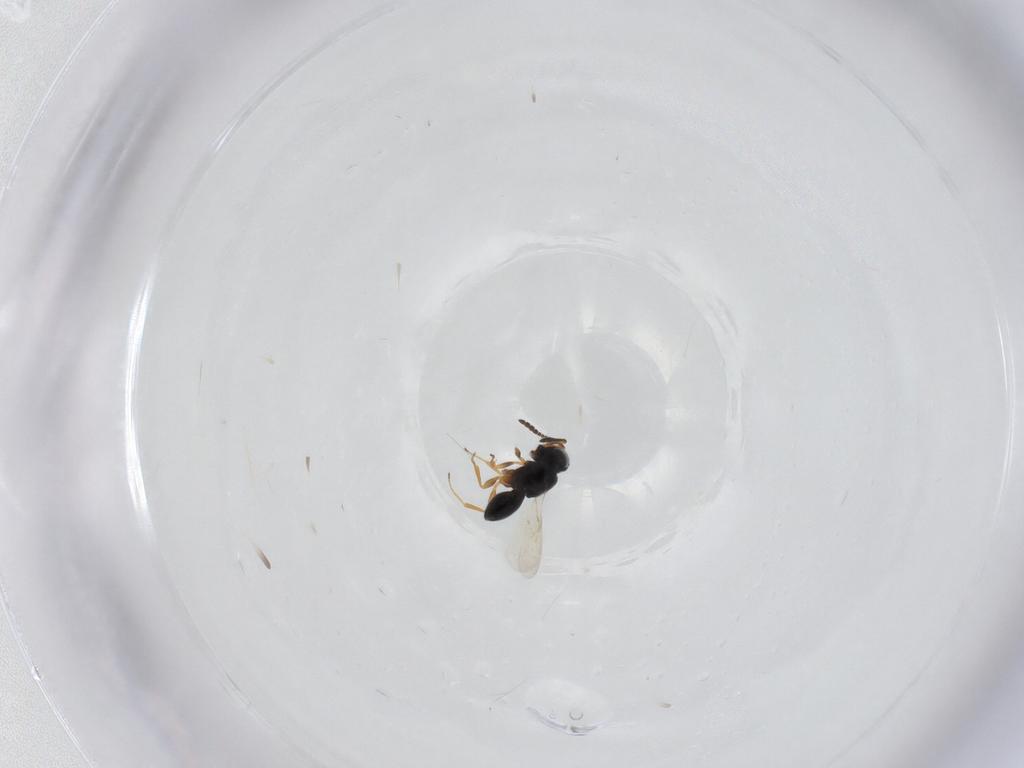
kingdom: Animalia
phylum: Arthropoda
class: Insecta
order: Hymenoptera
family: Scelionidae
